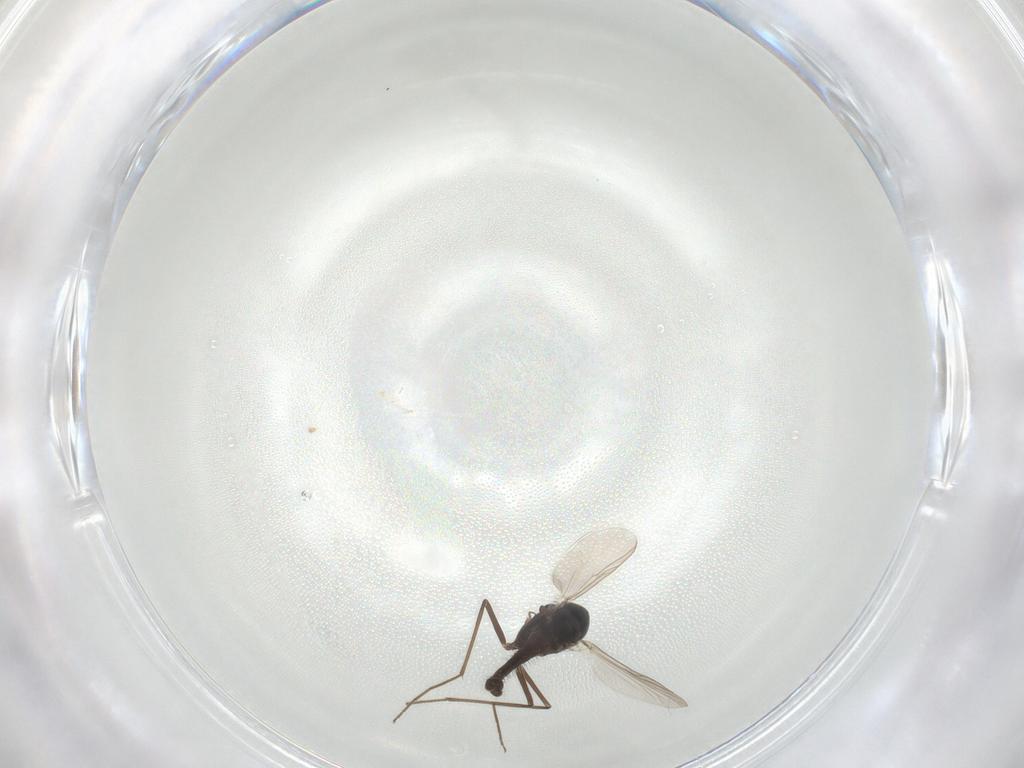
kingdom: Animalia
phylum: Arthropoda
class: Insecta
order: Diptera
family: Chironomidae
